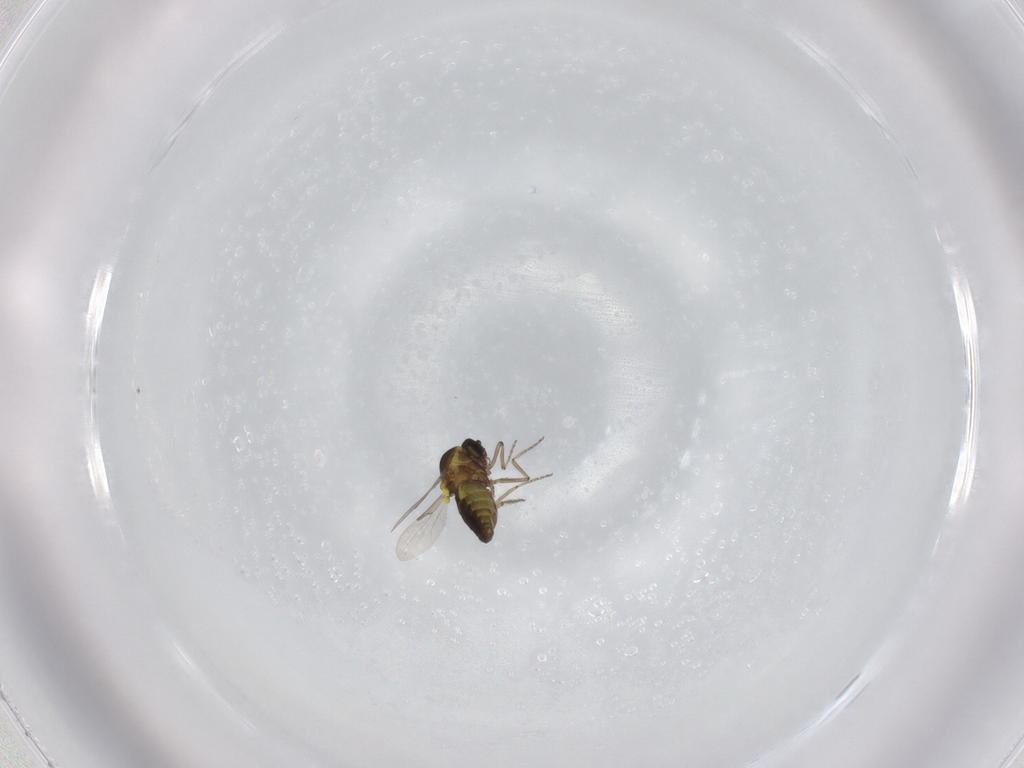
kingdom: Animalia
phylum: Arthropoda
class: Insecta
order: Diptera
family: Ceratopogonidae
